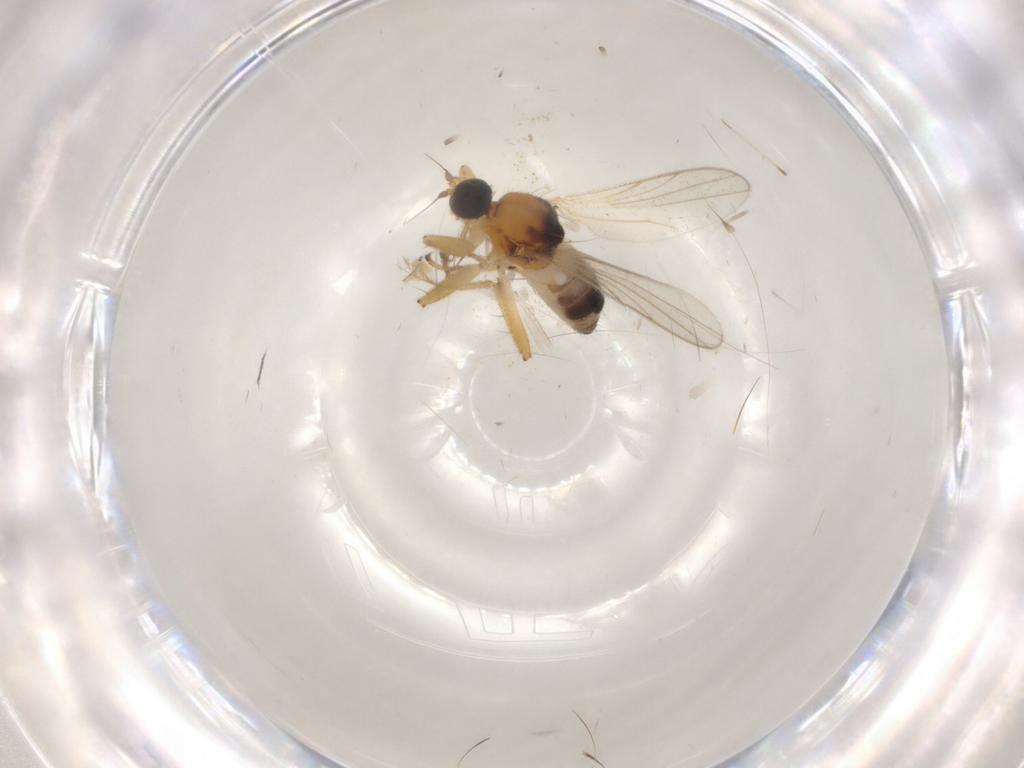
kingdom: Animalia
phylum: Arthropoda
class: Insecta
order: Diptera
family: Hybotidae
